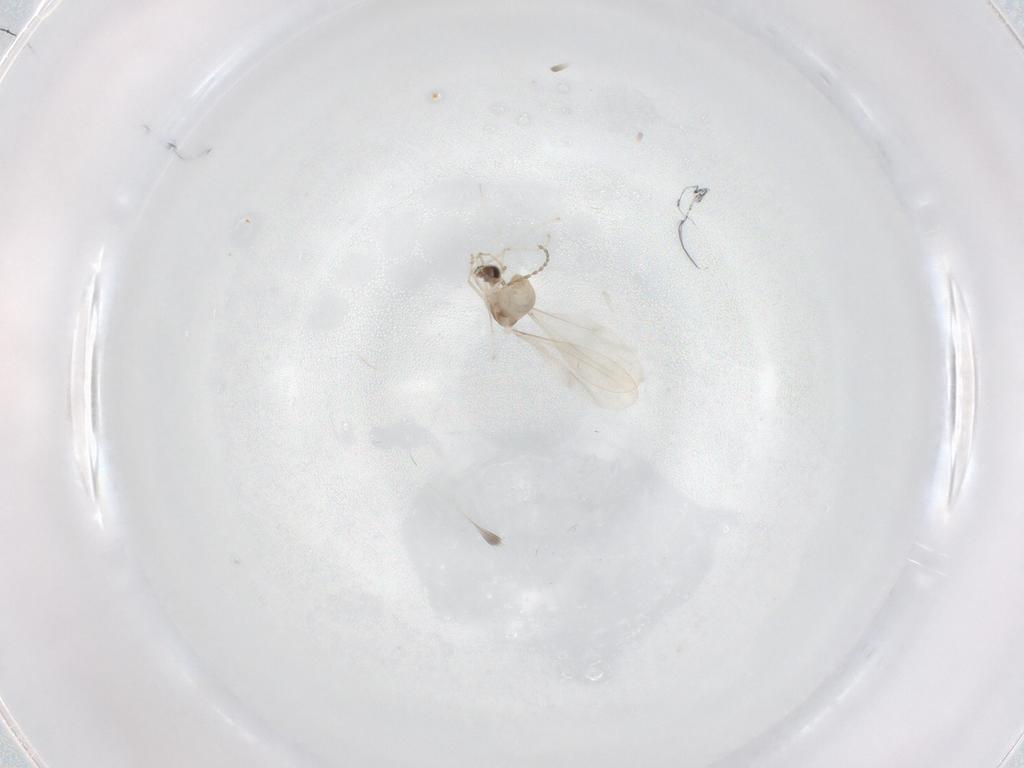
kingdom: Animalia
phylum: Arthropoda
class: Insecta
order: Diptera
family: Cecidomyiidae
